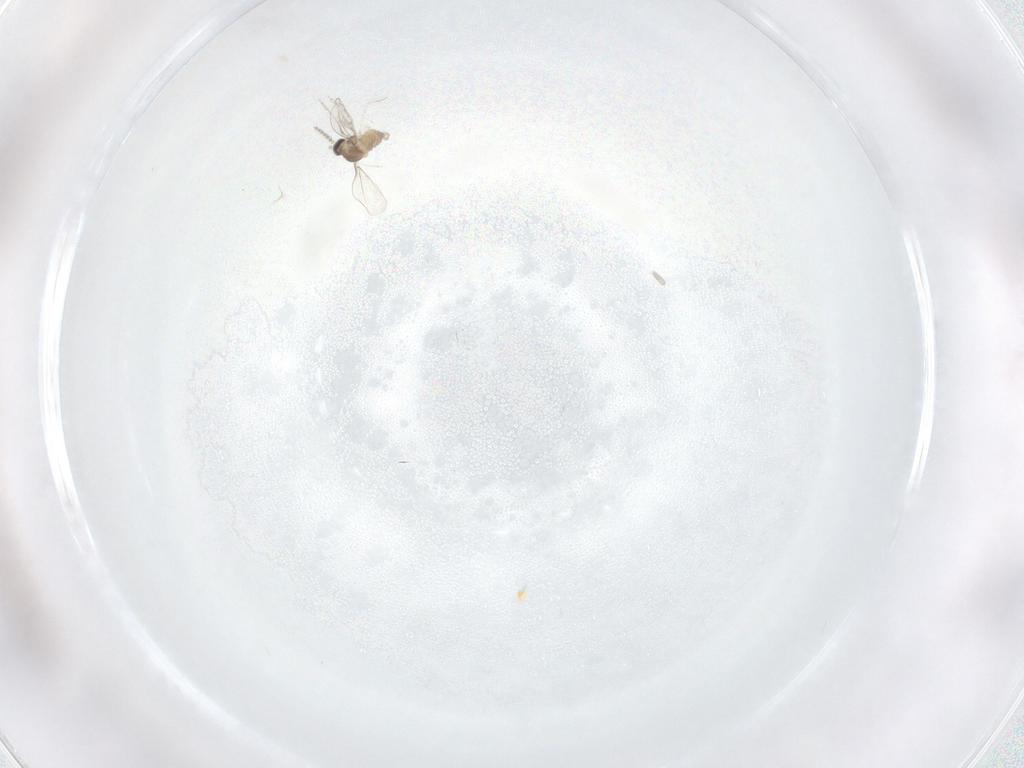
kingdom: Animalia
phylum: Arthropoda
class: Insecta
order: Diptera
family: Cecidomyiidae
